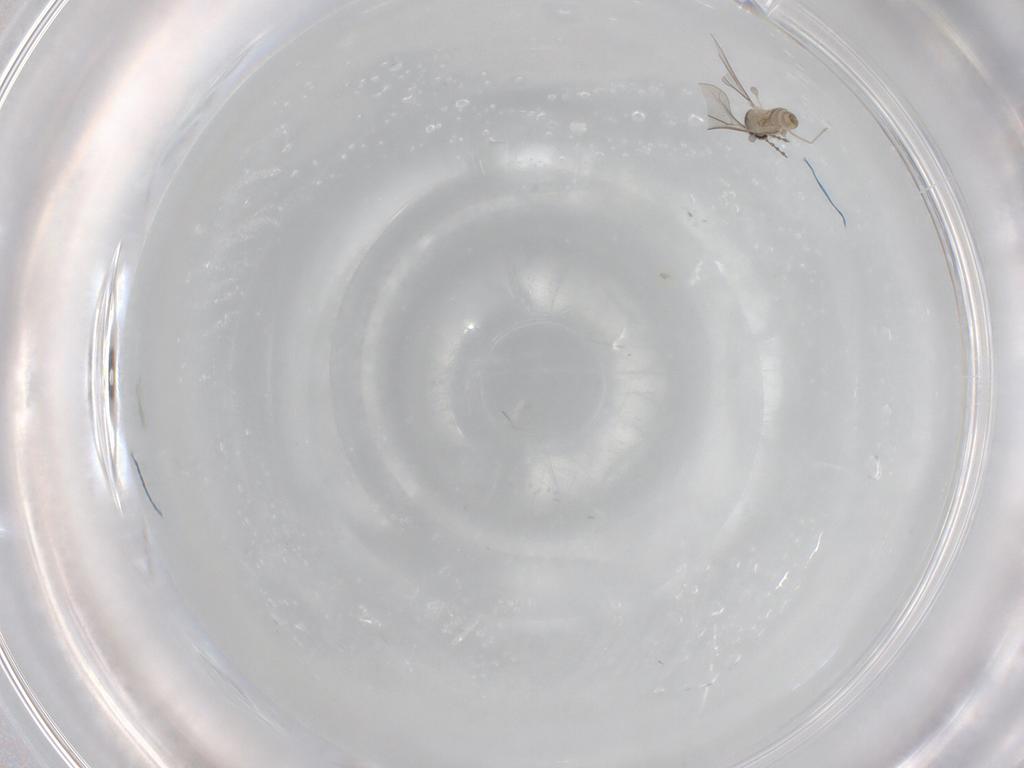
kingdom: Animalia
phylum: Arthropoda
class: Insecta
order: Diptera
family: Cecidomyiidae
